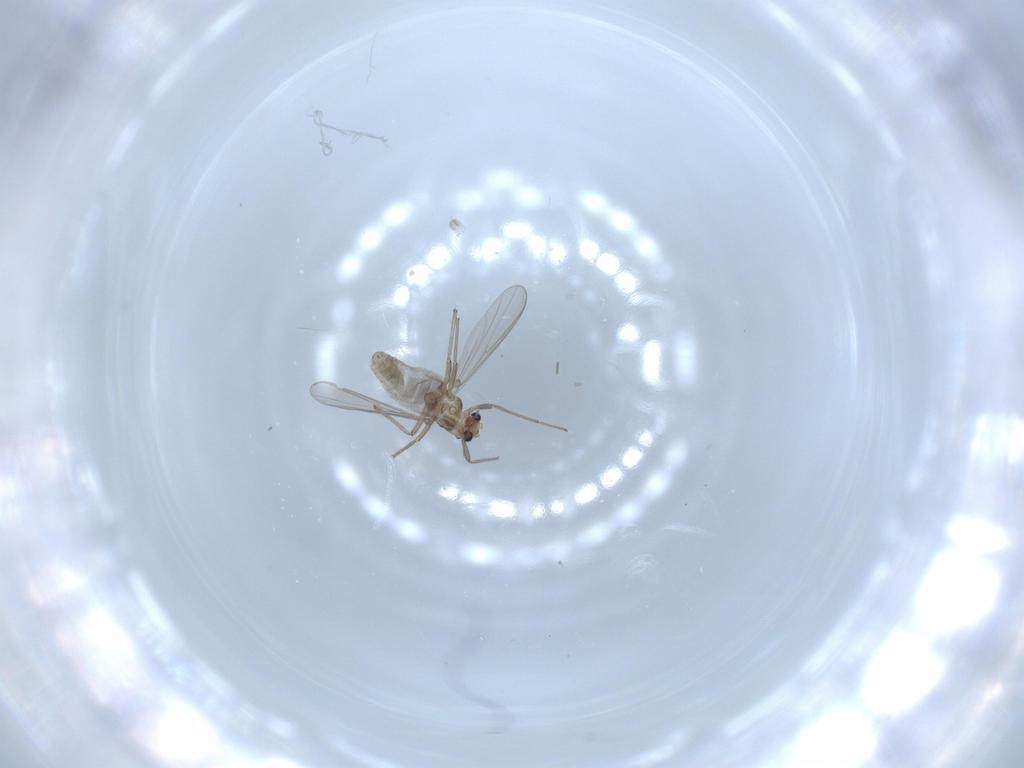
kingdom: Animalia
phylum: Arthropoda
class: Insecta
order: Diptera
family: Chironomidae
